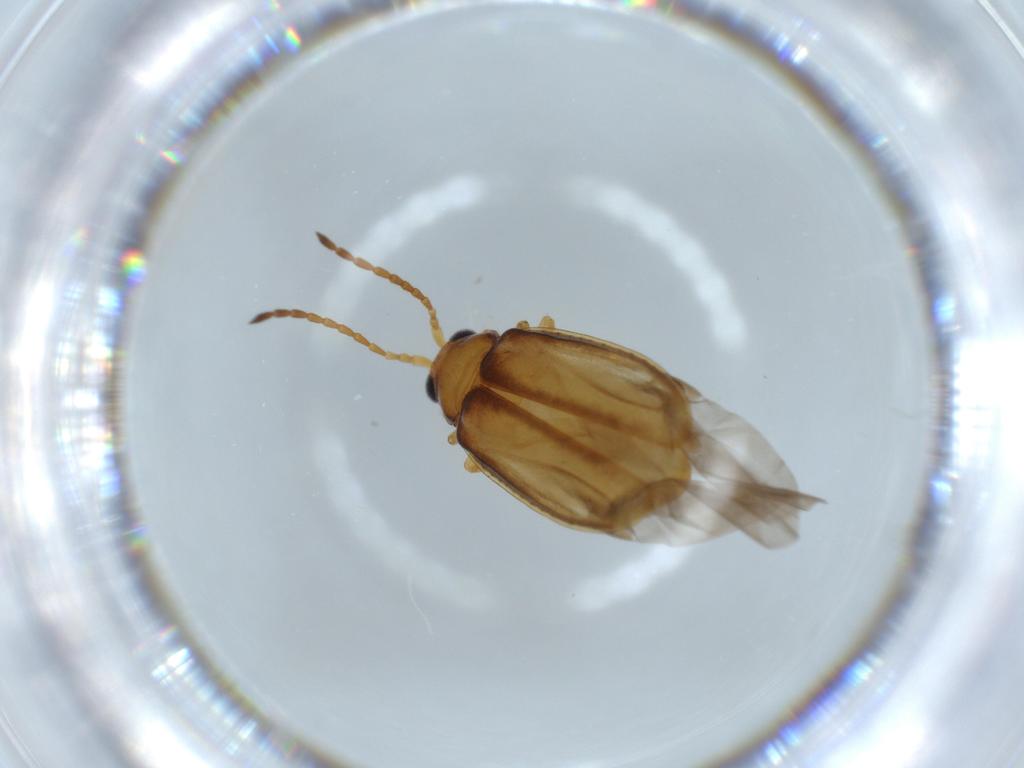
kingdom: Animalia
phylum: Arthropoda
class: Insecta
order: Coleoptera
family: Chrysomelidae
